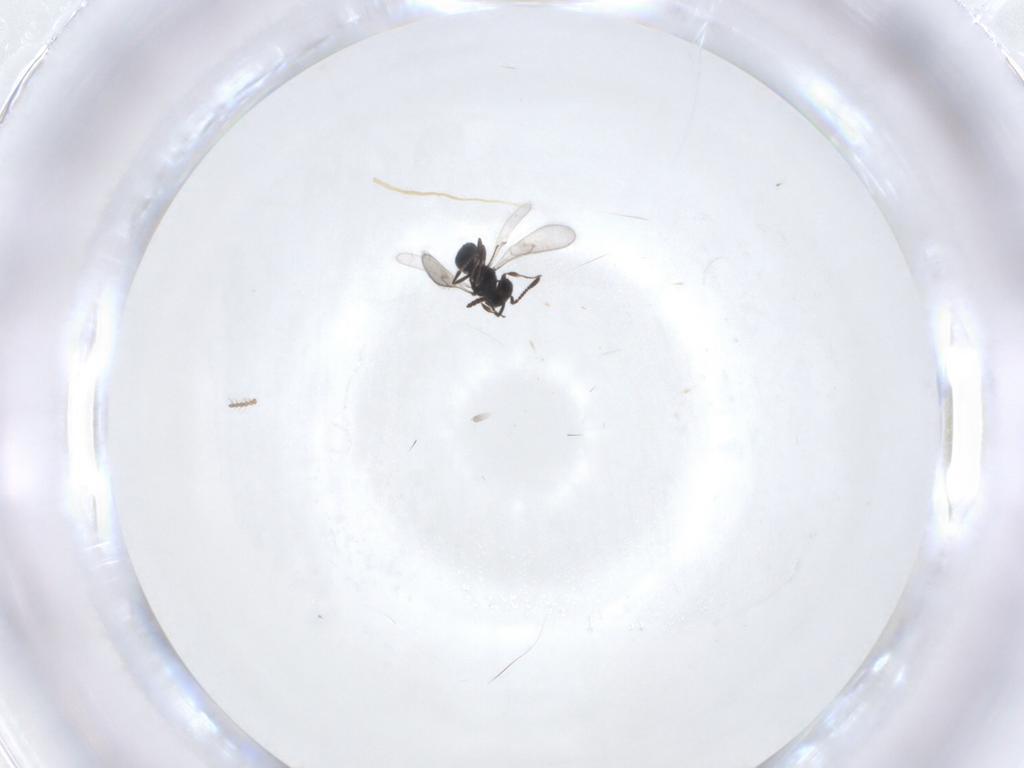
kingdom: Animalia
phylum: Arthropoda
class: Insecta
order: Hymenoptera
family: Scelionidae
